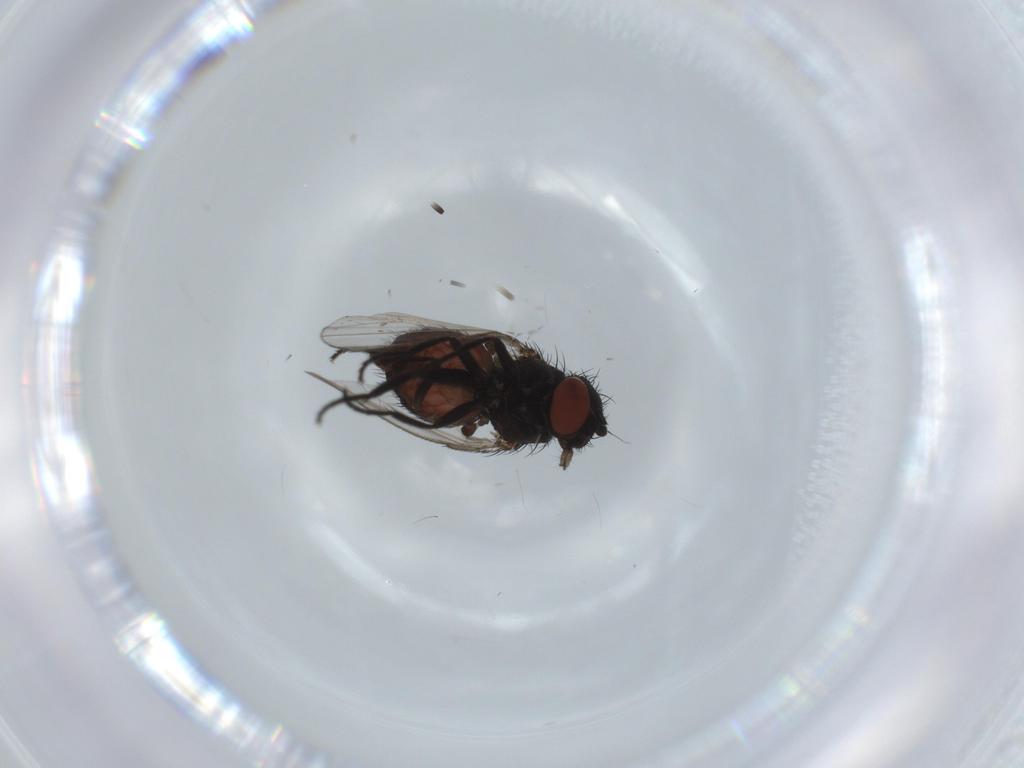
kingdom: Animalia
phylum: Arthropoda
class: Insecta
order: Diptera
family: Milichiidae
